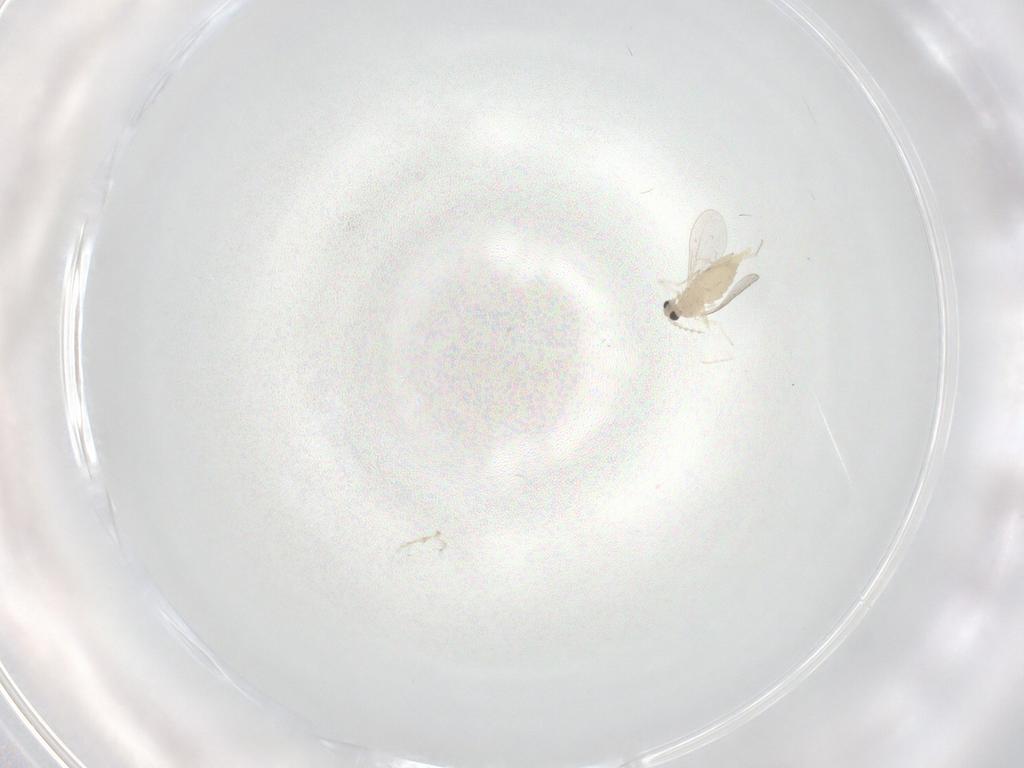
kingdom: Animalia
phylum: Arthropoda
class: Insecta
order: Diptera
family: Cecidomyiidae
